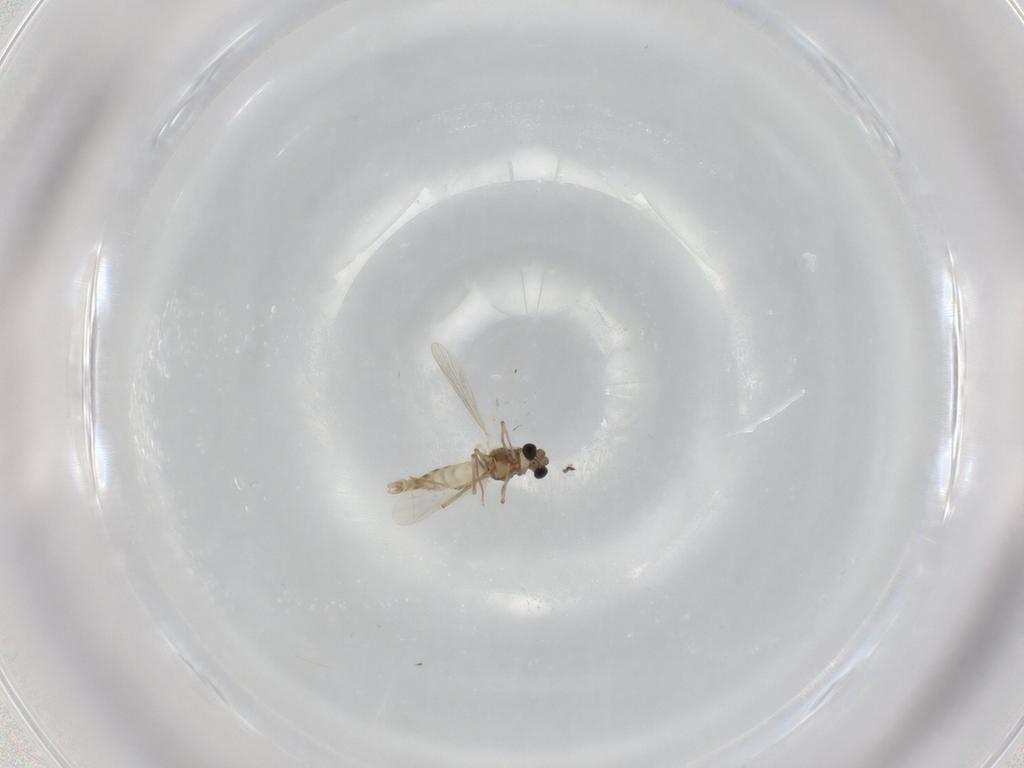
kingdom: Animalia
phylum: Arthropoda
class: Insecta
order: Diptera
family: Chironomidae
